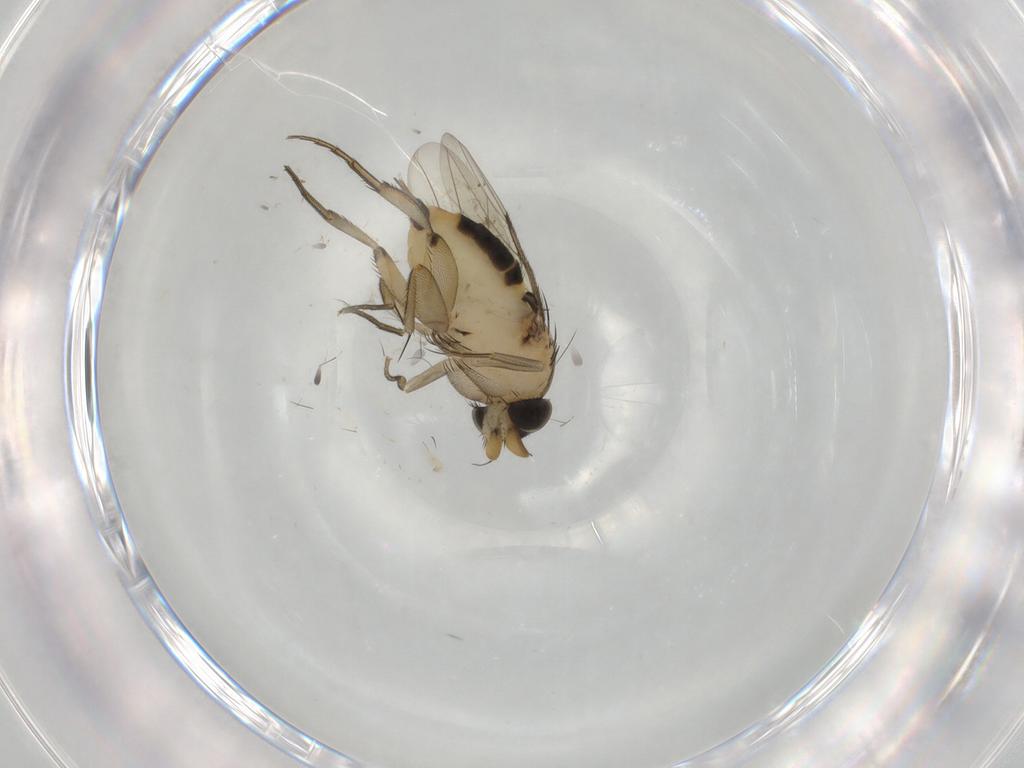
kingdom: Animalia
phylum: Arthropoda
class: Insecta
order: Diptera
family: Phoridae
